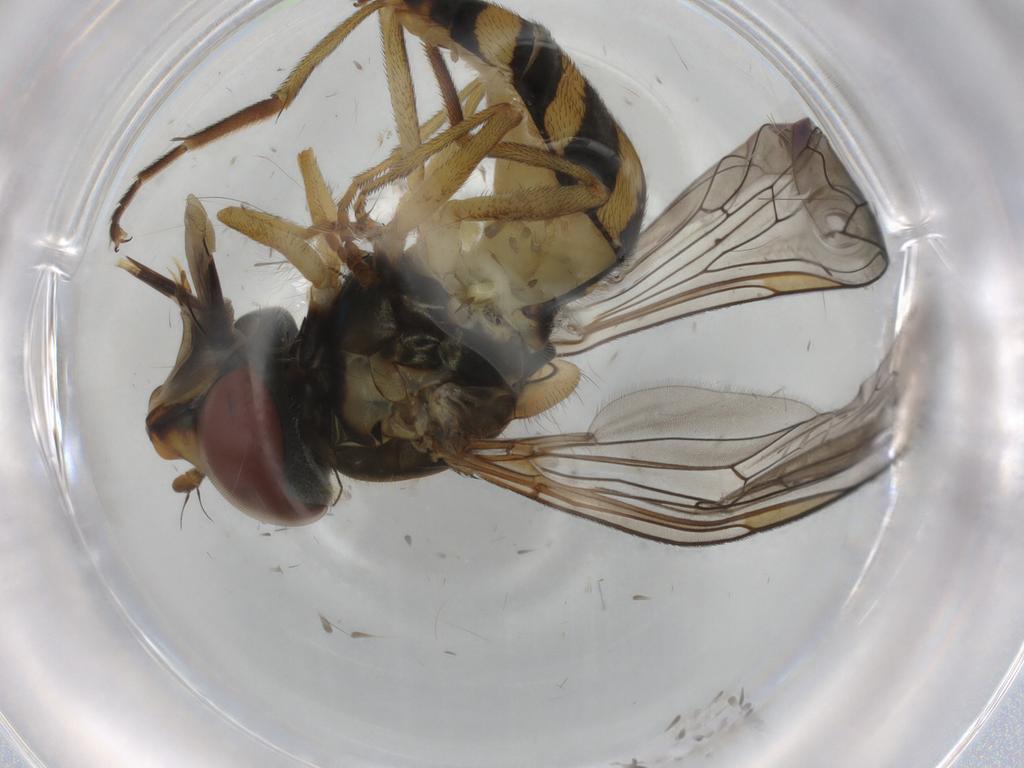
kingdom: Animalia
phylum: Arthropoda
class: Insecta
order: Diptera
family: Syrphidae
